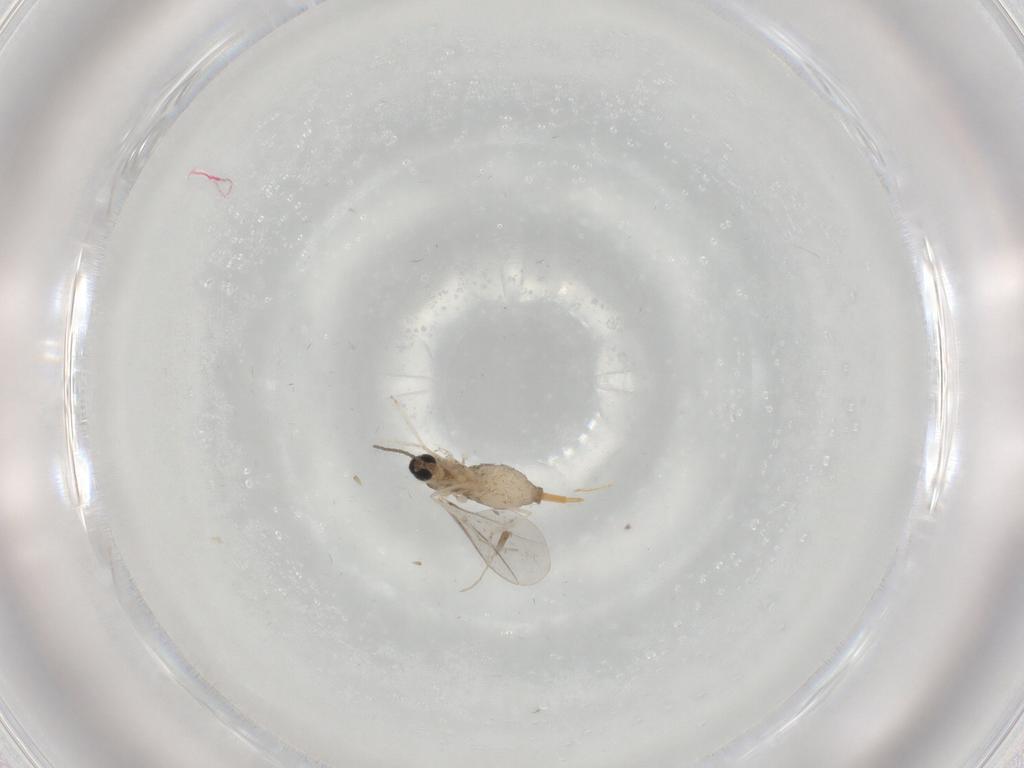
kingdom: Animalia
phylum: Arthropoda
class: Insecta
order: Diptera
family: Cecidomyiidae
